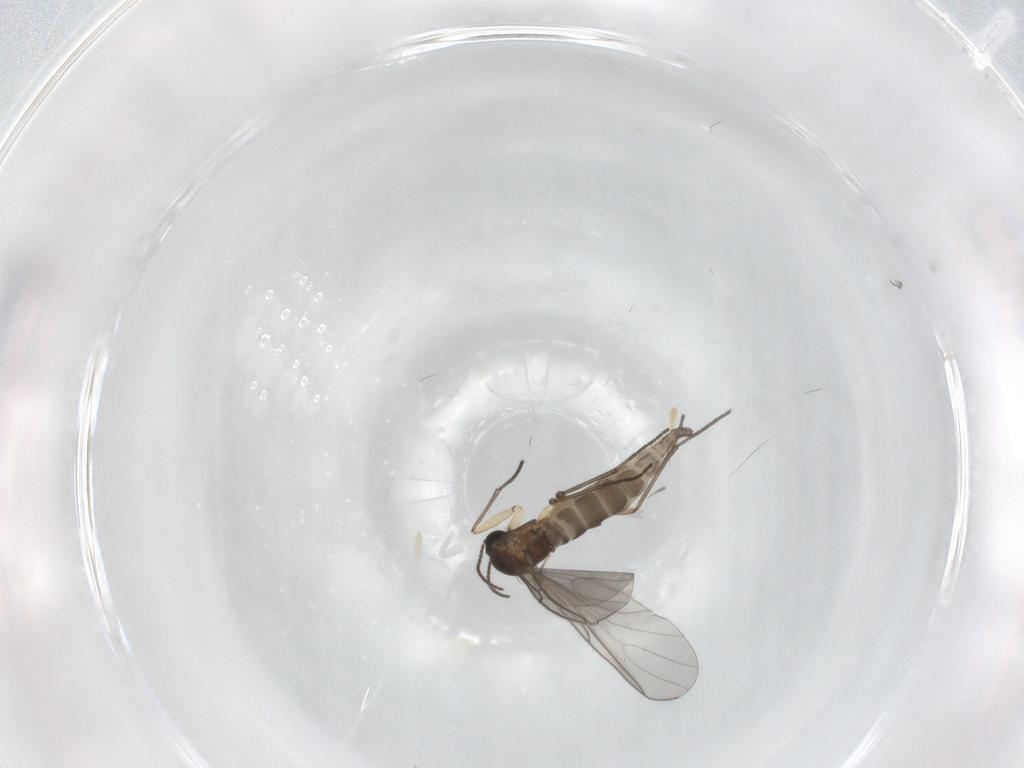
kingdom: Animalia
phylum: Arthropoda
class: Insecta
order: Diptera
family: Sciaridae
